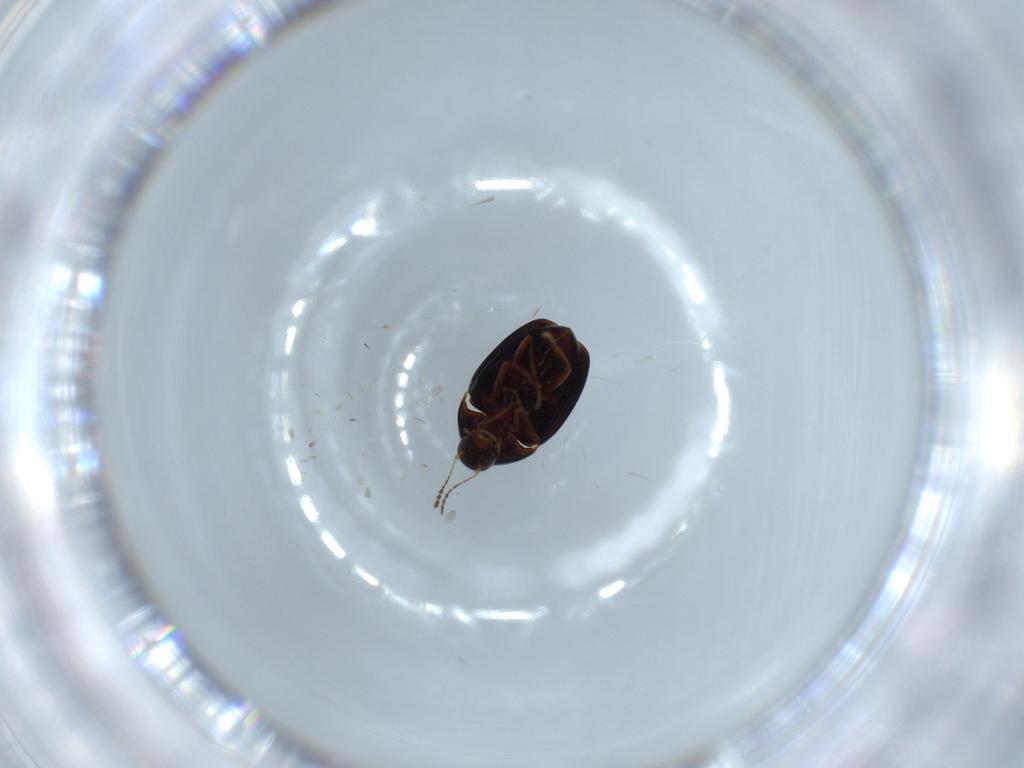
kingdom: Animalia
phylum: Arthropoda
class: Insecta
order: Coleoptera
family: Staphylinidae
